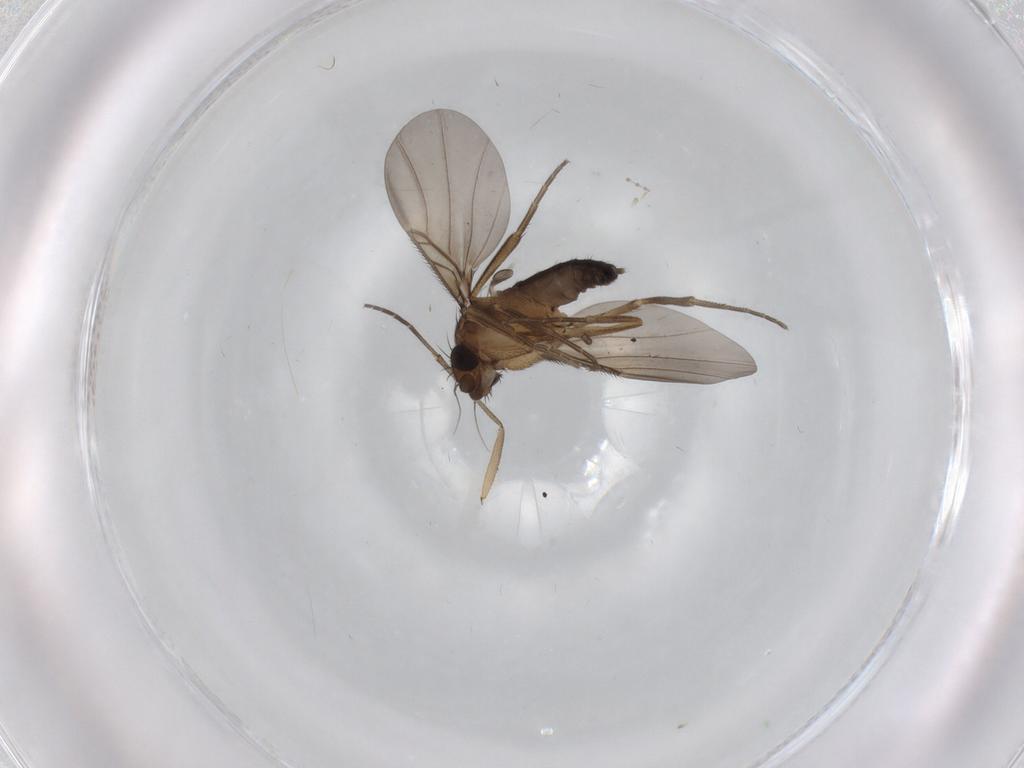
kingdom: Animalia
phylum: Arthropoda
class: Insecta
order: Diptera
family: Phoridae
